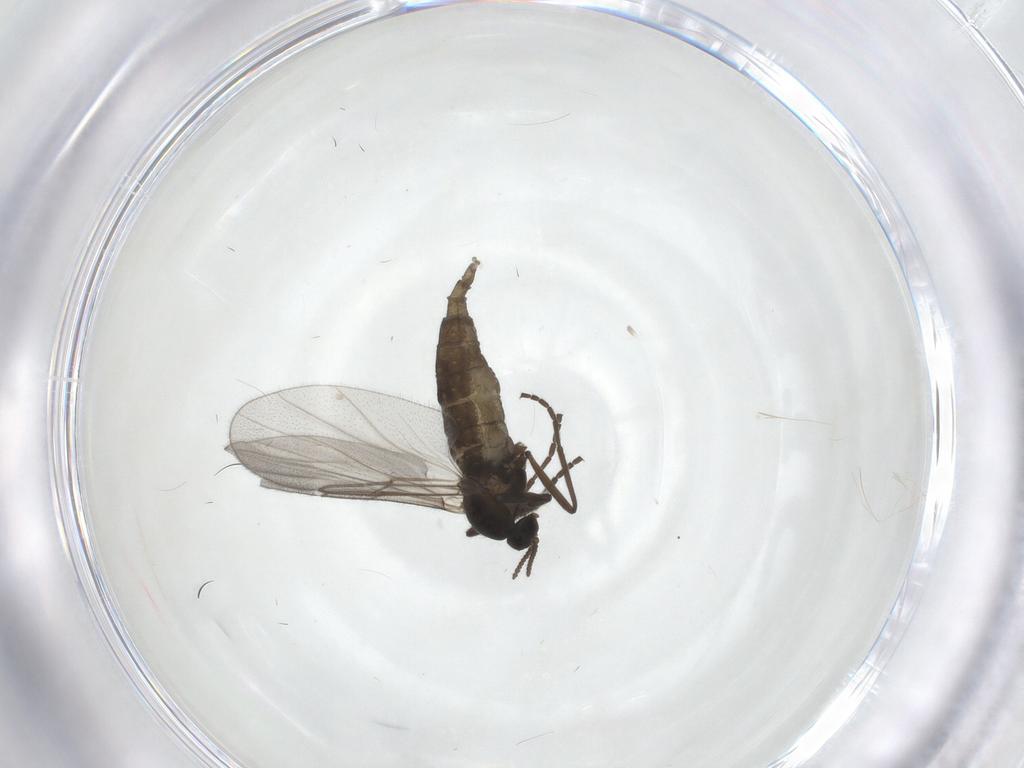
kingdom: Animalia
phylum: Arthropoda
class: Insecta
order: Diptera
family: Cecidomyiidae
